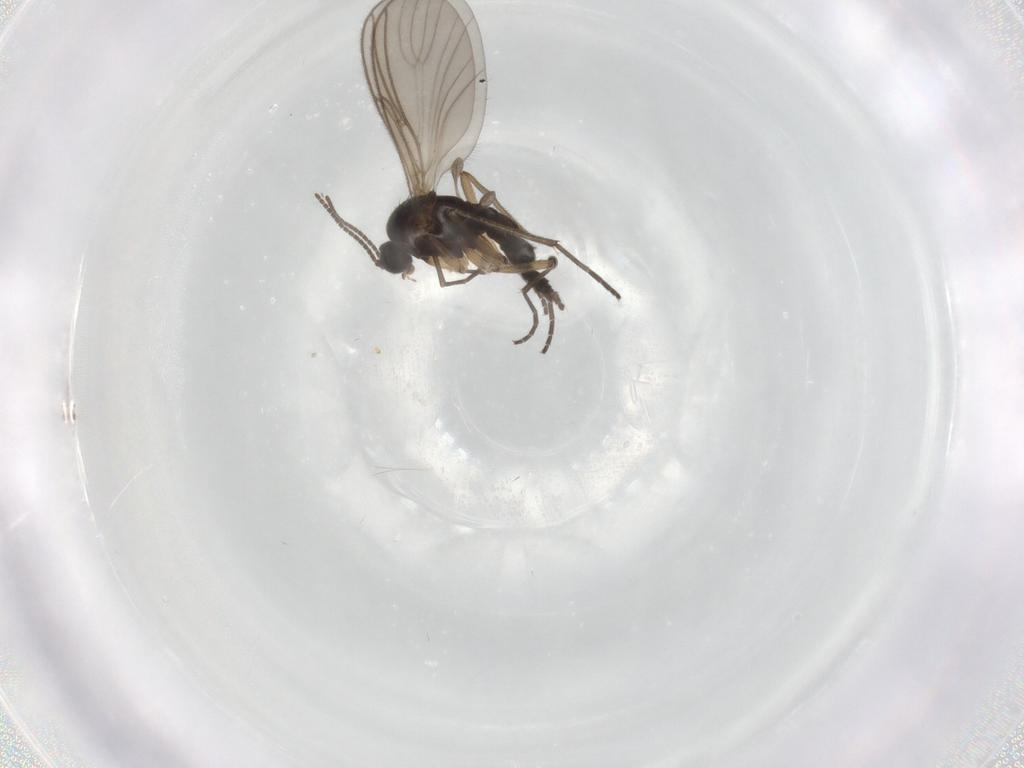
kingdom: Animalia
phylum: Arthropoda
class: Insecta
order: Diptera
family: Sciaridae
